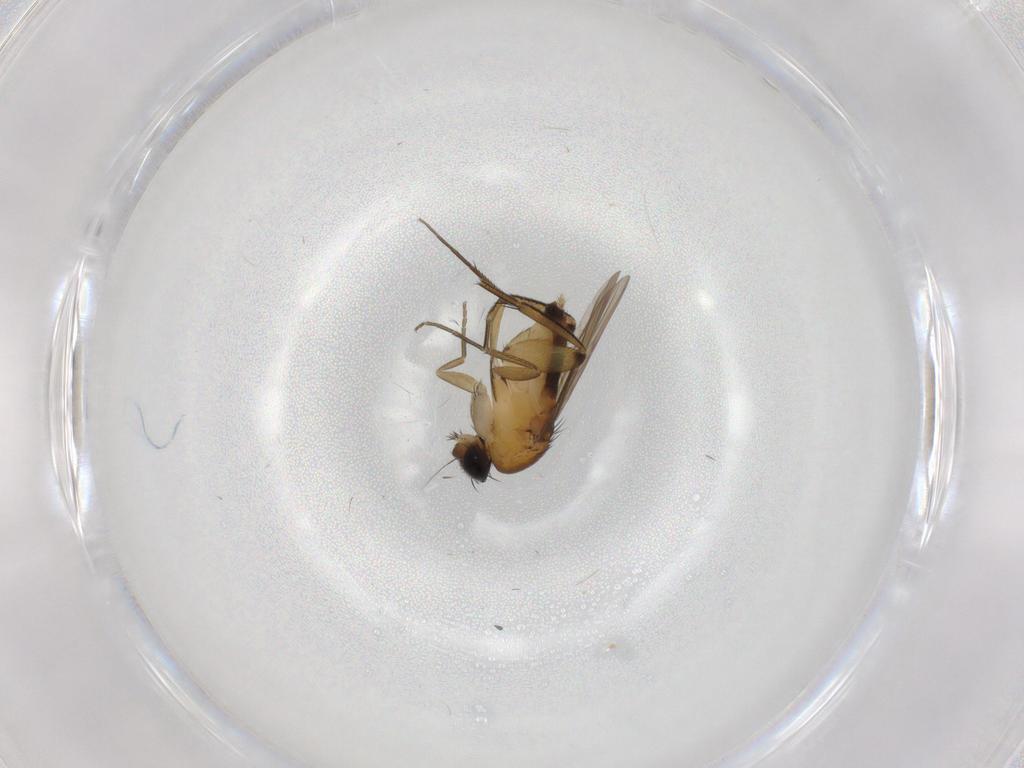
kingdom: Animalia
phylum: Arthropoda
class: Insecta
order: Diptera
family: Phoridae
